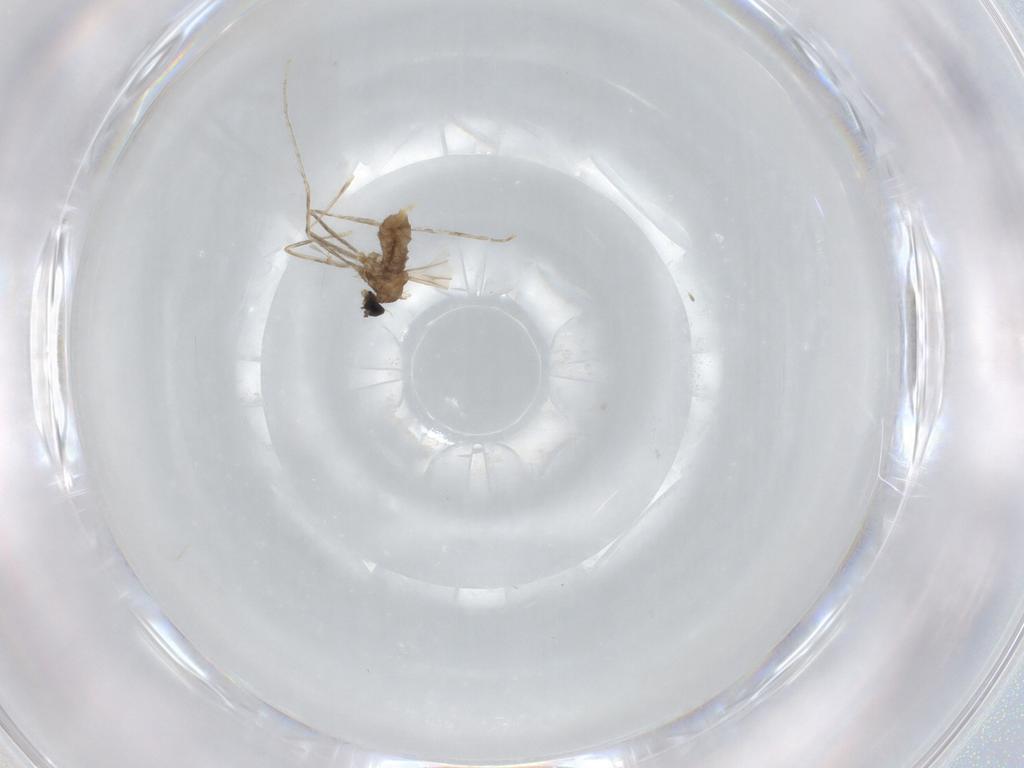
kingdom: Animalia
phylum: Arthropoda
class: Insecta
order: Diptera
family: Cecidomyiidae
